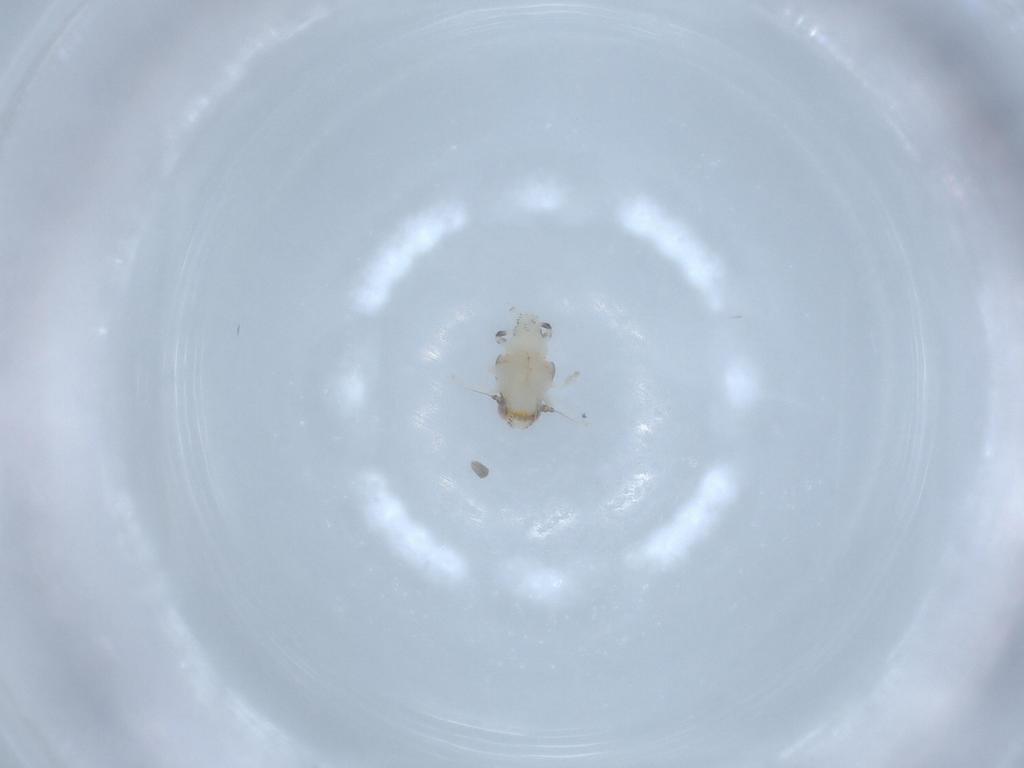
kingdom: Animalia
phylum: Arthropoda
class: Insecta
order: Hemiptera
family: Nogodinidae
